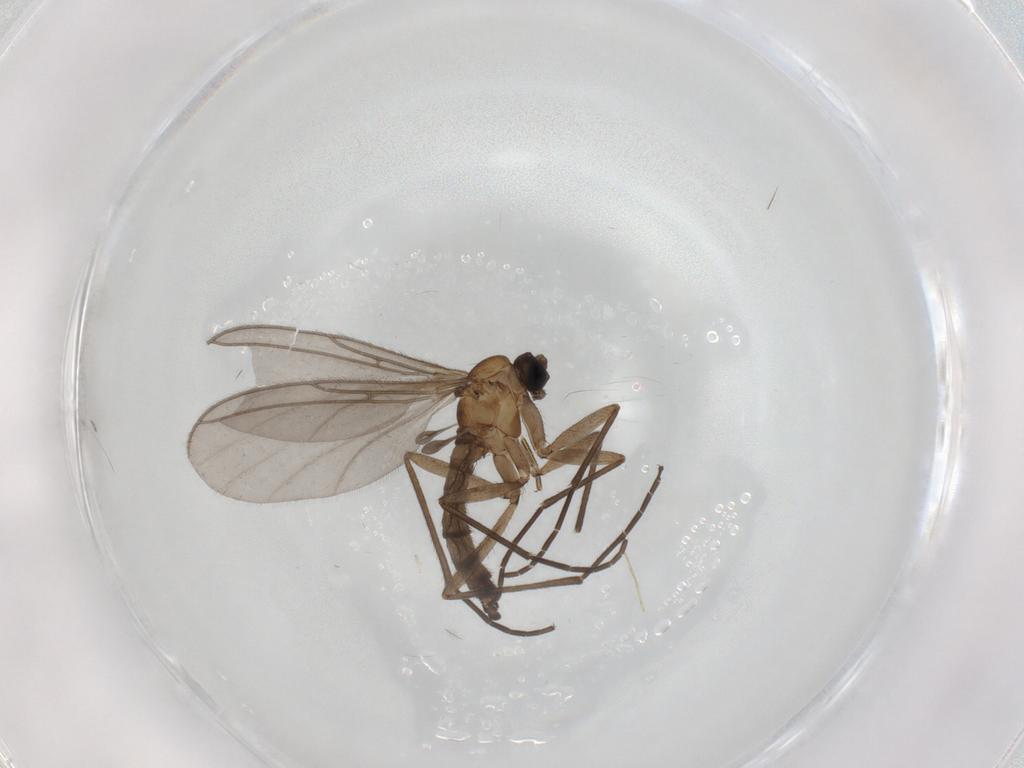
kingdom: Animalia
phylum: Arthropoda
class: Insecta
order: Diptera
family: Sciaridae
